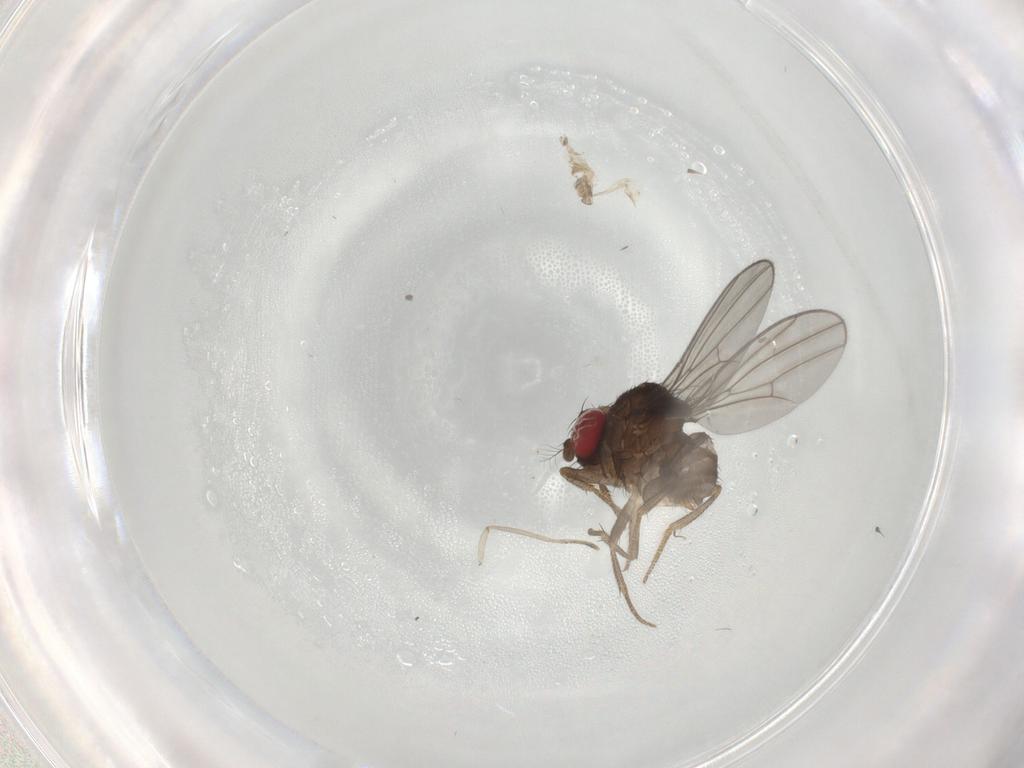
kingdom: Animalia
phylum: Arthropoda
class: Insecta
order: Diptera
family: Drosophilidae
